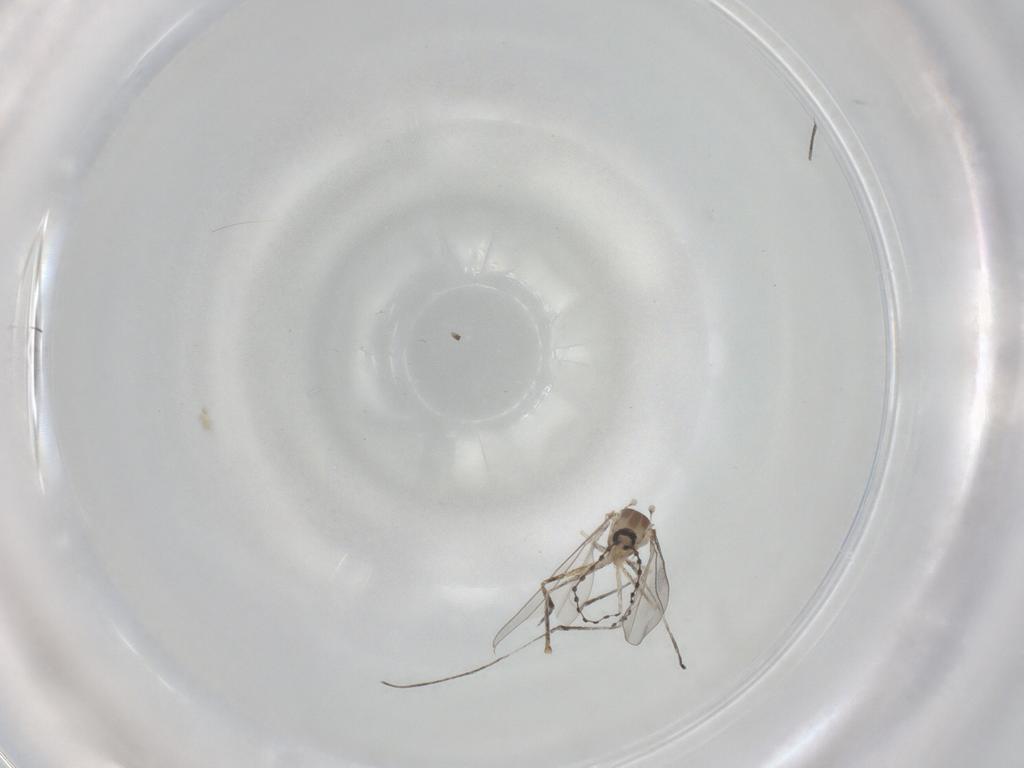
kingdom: Animalia
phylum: Arthropoda
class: Insecta
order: Diptera
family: Cecidomyiidae
